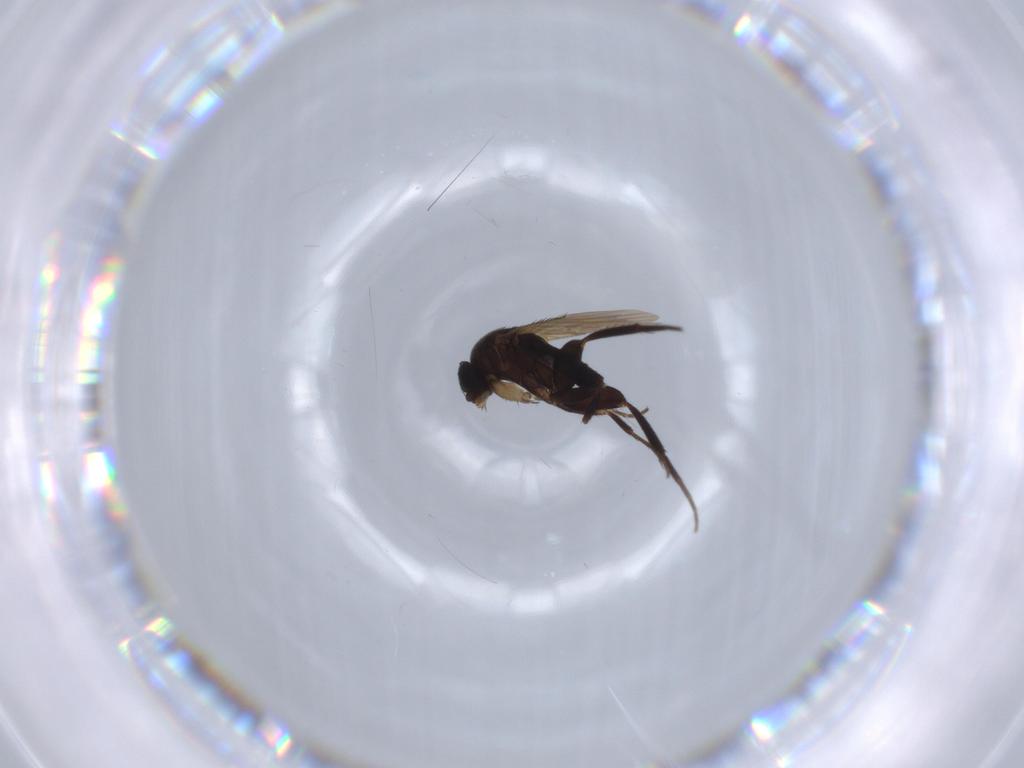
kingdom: Animalia
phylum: Arthropoda
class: Insecta
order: Diptera
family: Phoridae
